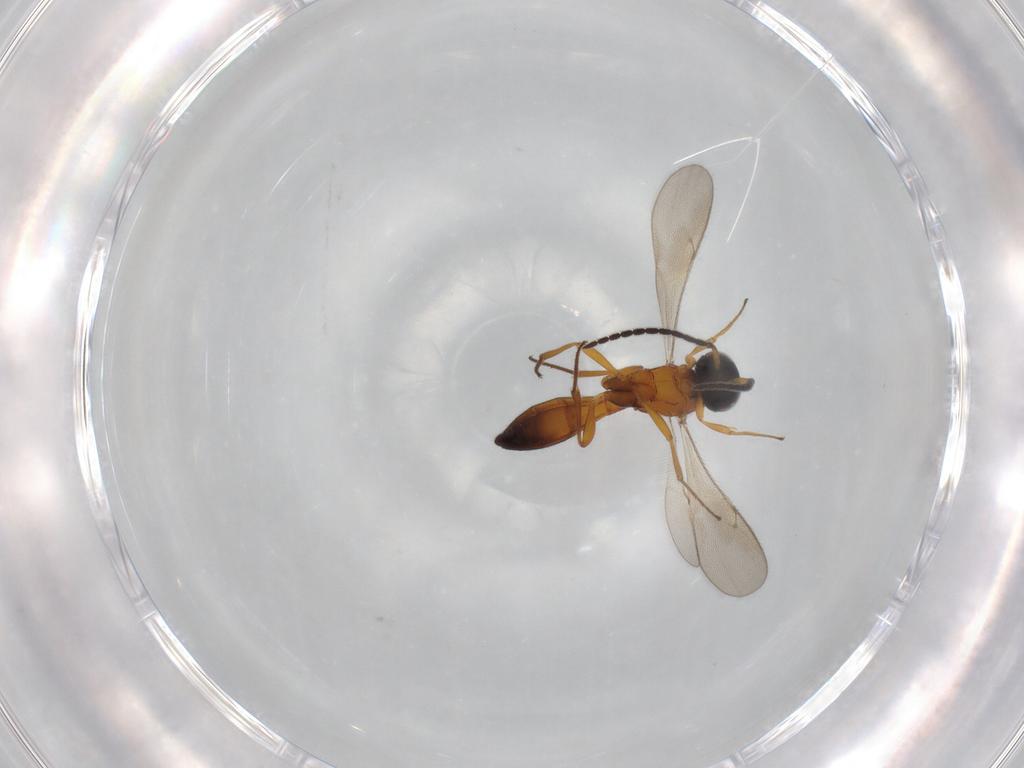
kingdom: Animalia
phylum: Arthropoda
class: Insecta
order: Hymenoptera
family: Scelionidae
